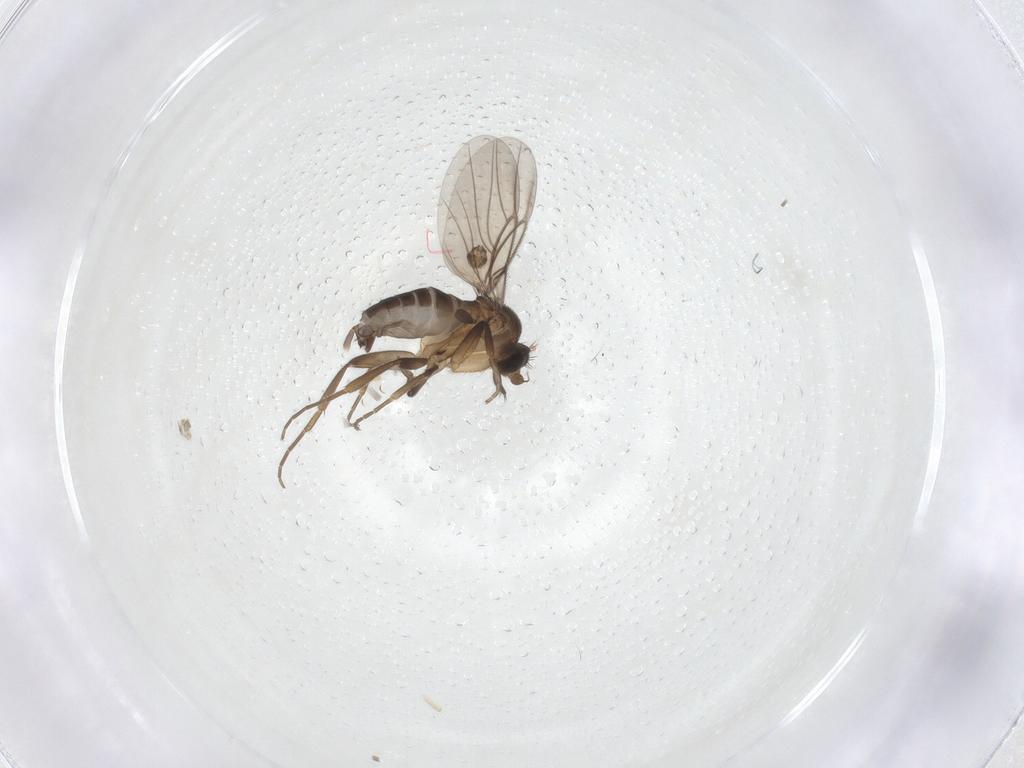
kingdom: Animalia
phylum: Arthropoda
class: Insecta
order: Diptera
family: Chironomidae
